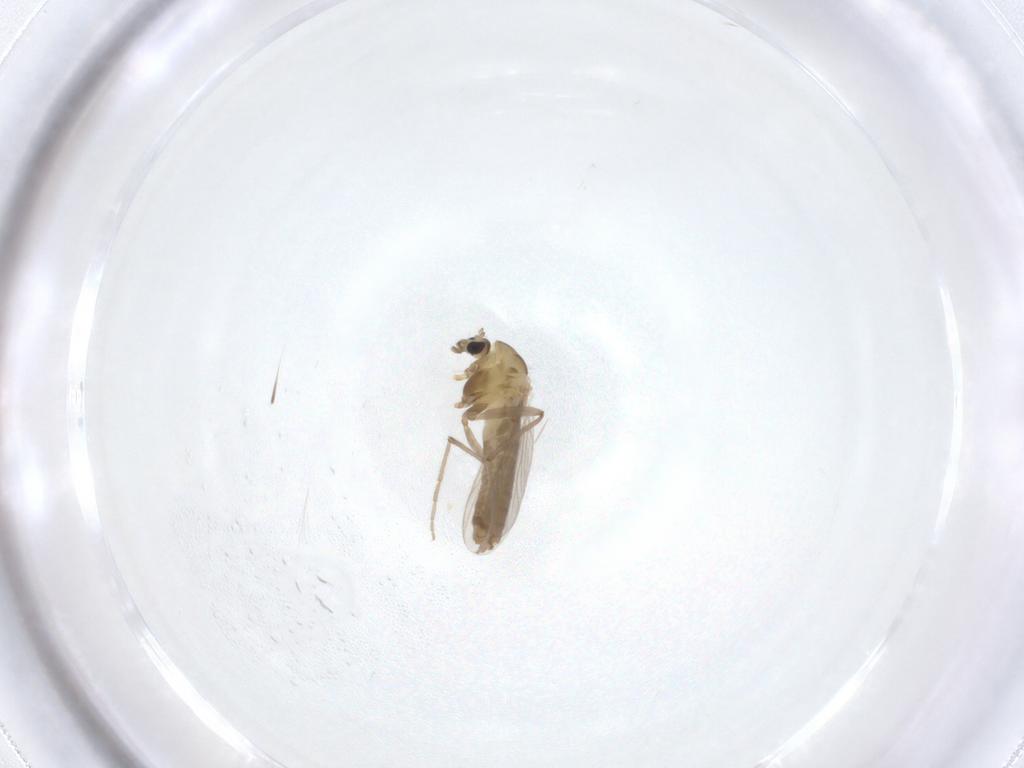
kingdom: Animalia
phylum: Arthropoda
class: Insecta
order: Diptera
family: Chironomidae
